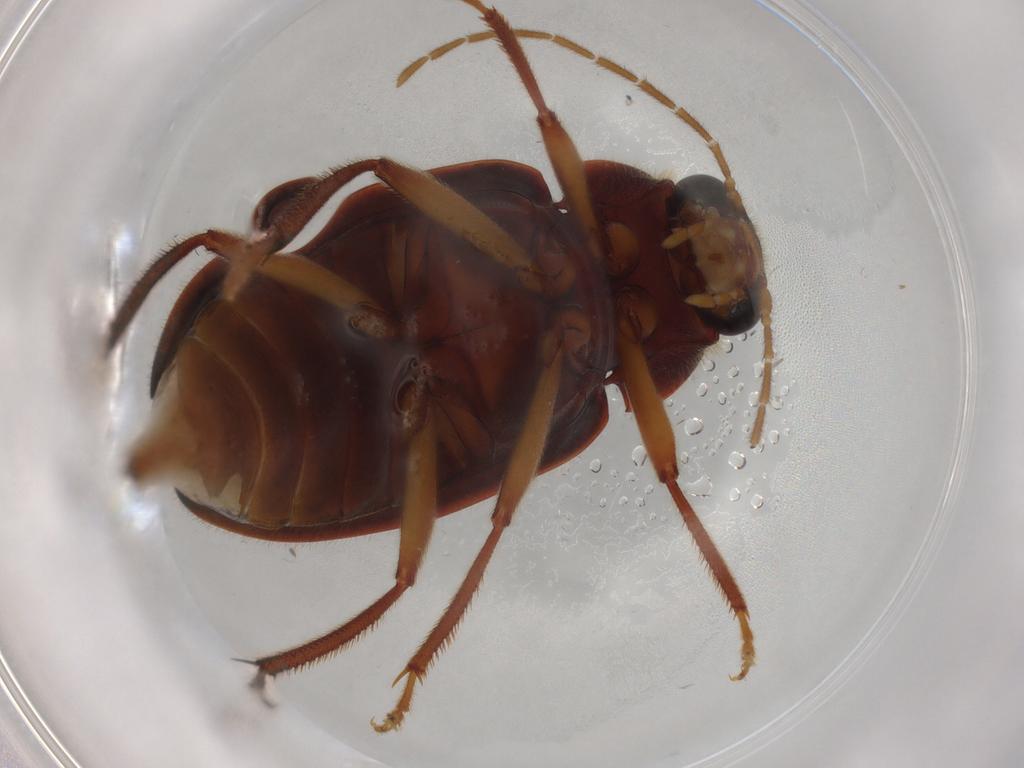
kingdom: Animalia
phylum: Arthropoda
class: Insecta
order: Coleoptera
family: Ptilodactylidae
